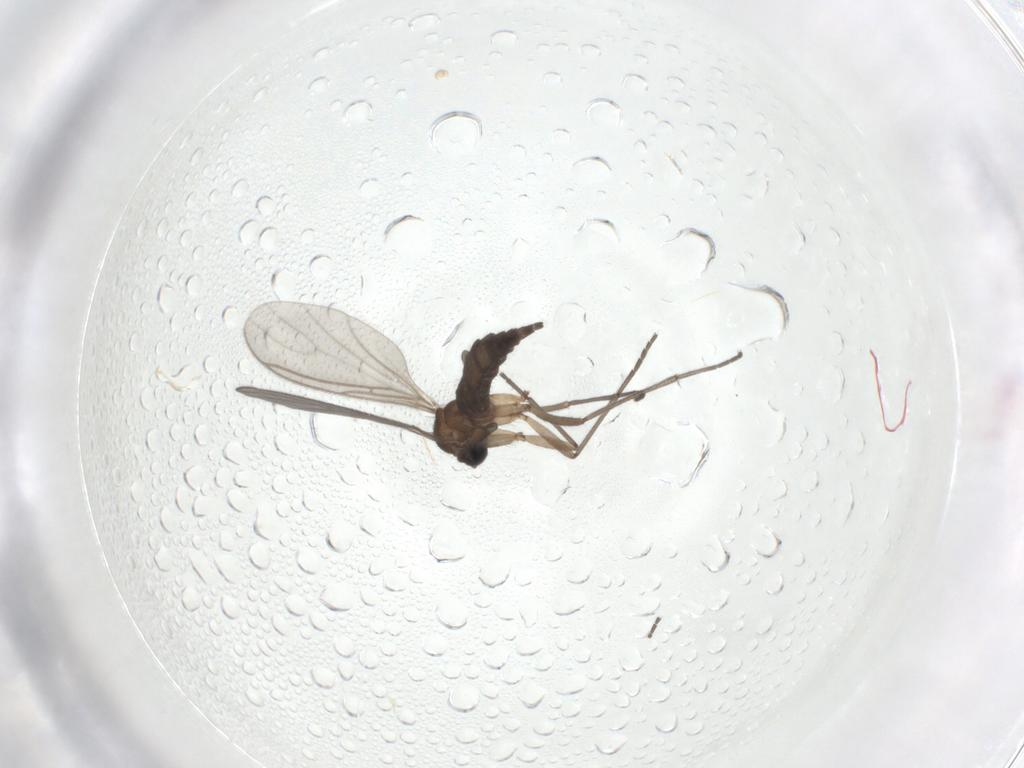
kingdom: Animalia
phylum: Arthropoda
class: Insecta
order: Diptera
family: Sciaridae
